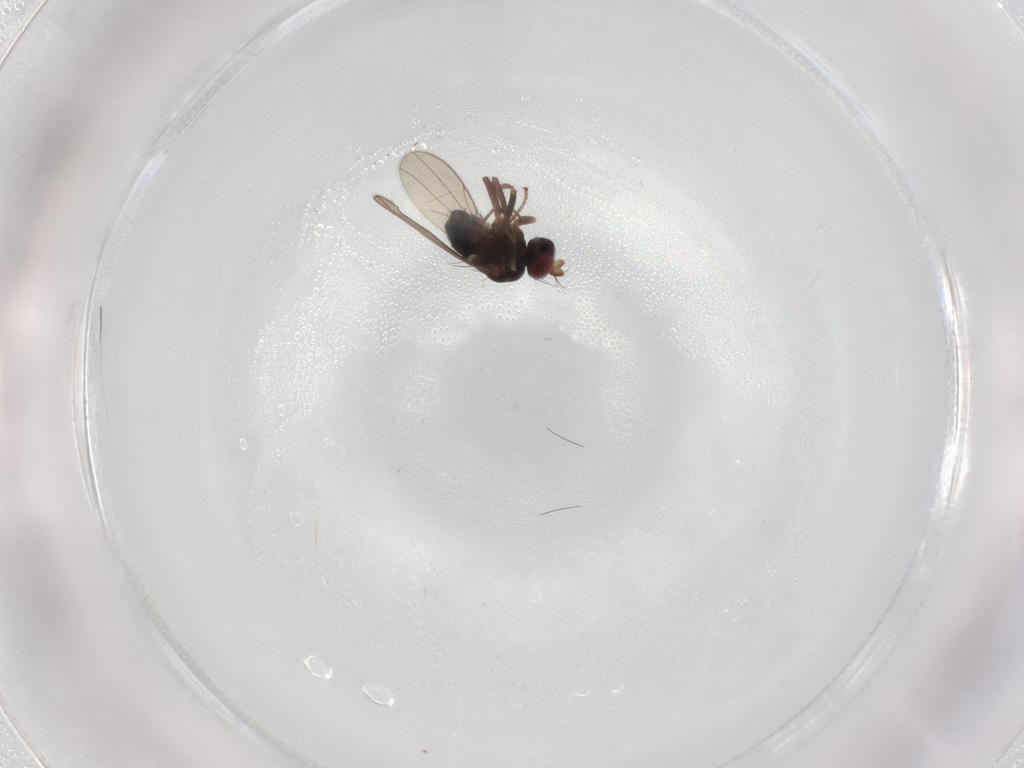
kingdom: Animalia
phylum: Arthropoda
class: Insecta
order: Diptera
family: Ephydridae
